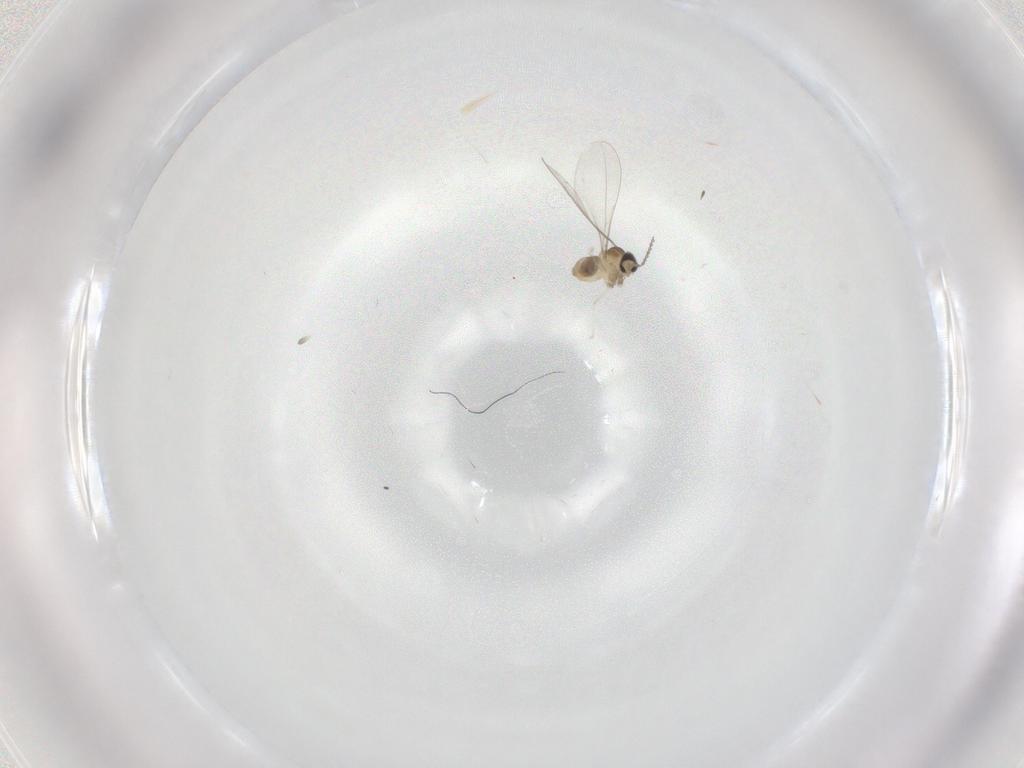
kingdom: Animalia
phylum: Arthropoda
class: Insecta
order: Diptera
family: Cecidomyiidae
